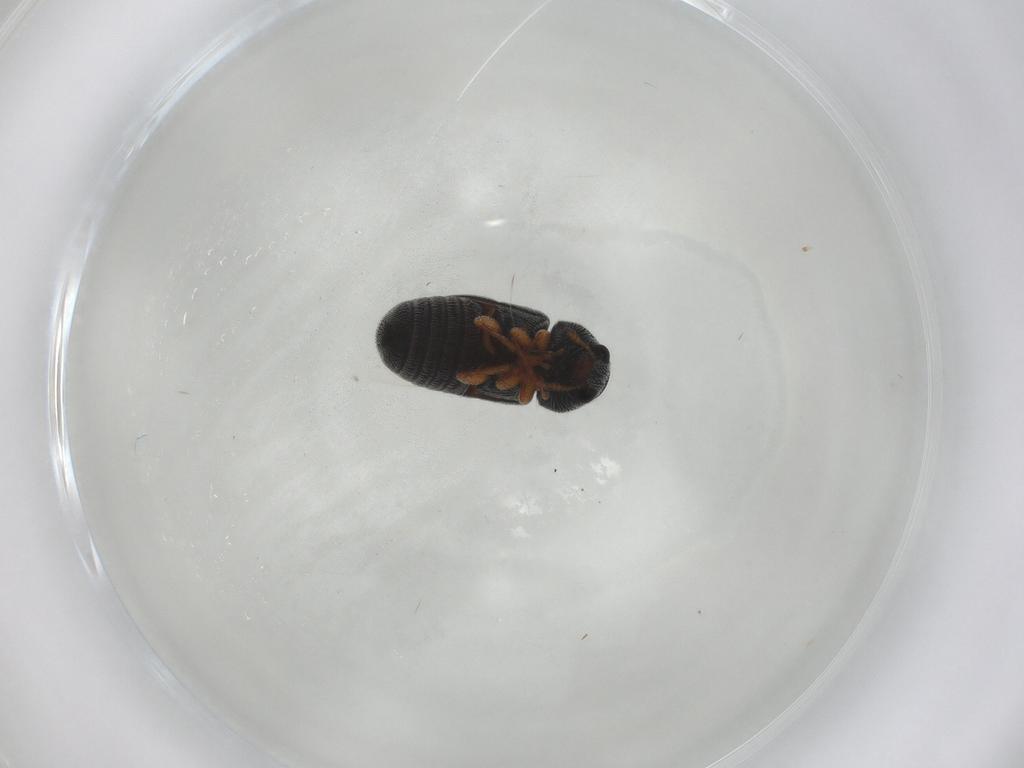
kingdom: Animalia
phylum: Arthropoda
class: Insecta
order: Coleoptera
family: Anthribidae
